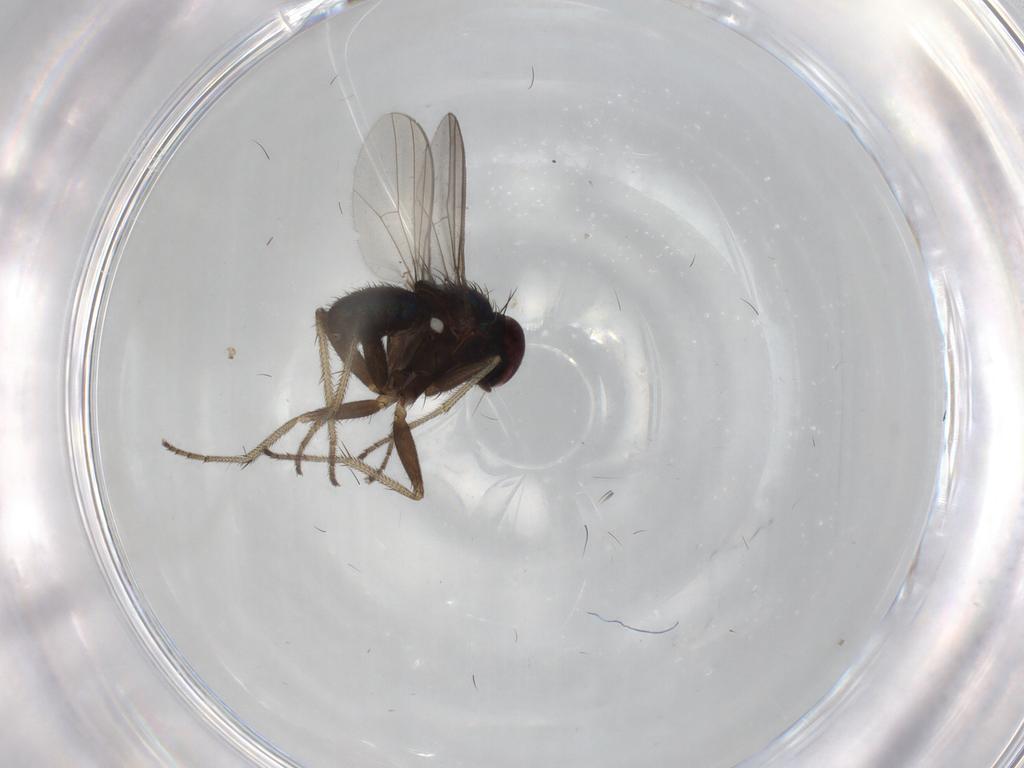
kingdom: Animalia
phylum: Arthropoda
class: Insecta
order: Diptera
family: Dolichopodidae
